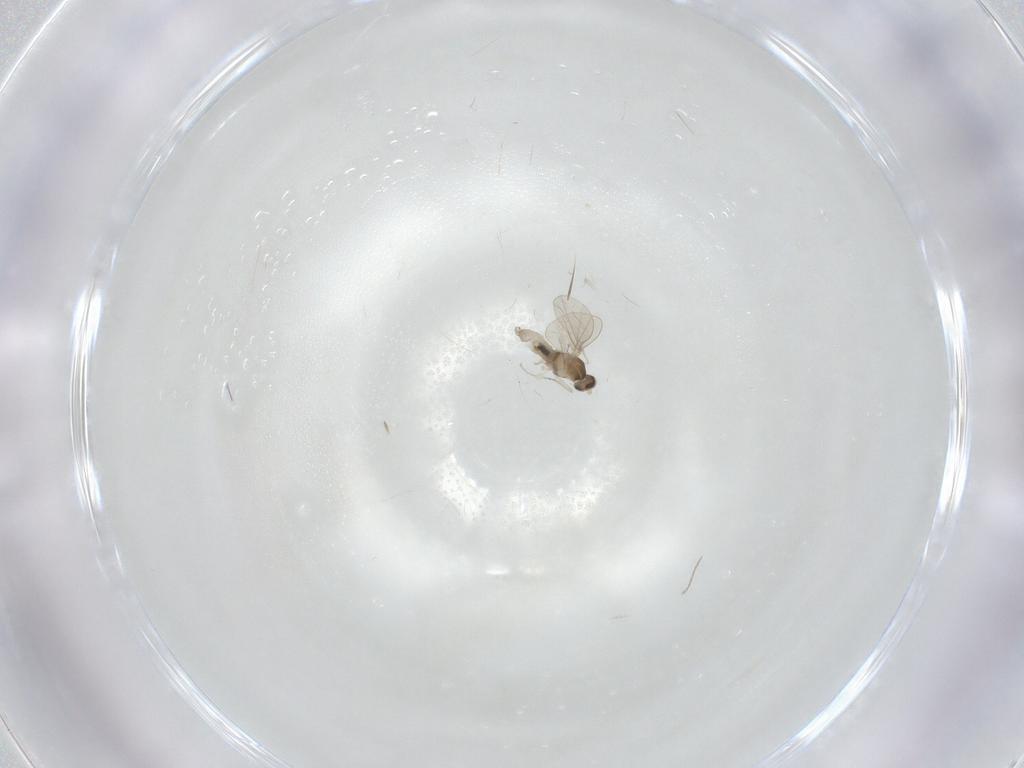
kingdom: Animalia
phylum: Arthropoda
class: Insecta
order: Diptera
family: Cecidomyiidae
